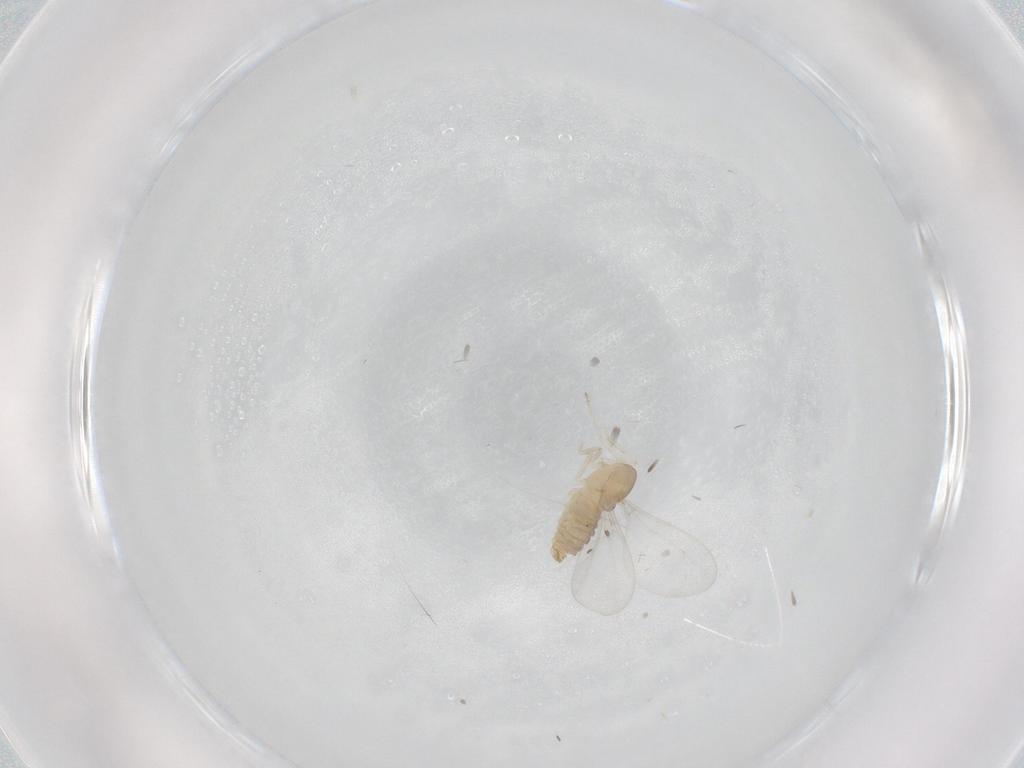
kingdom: Animalia
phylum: Arthropoda
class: Insecta
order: Diptera
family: Cecidomyiidae
